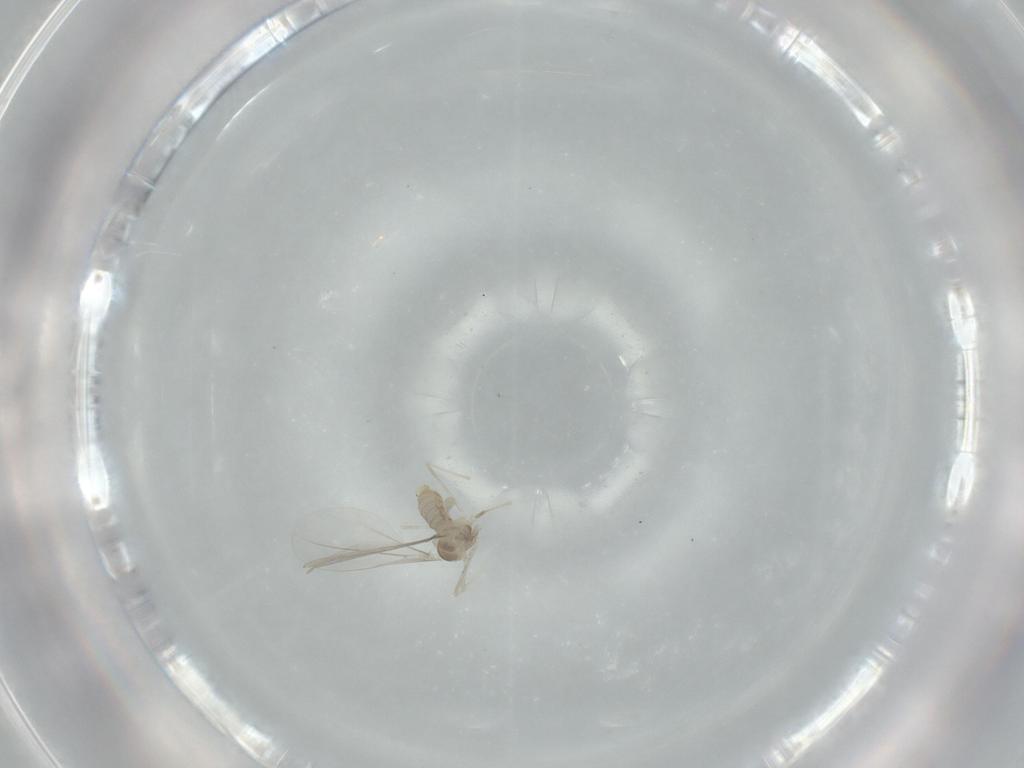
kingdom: Animalia
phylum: Arthropoda
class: Insecta
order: Diptera
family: Fannia
